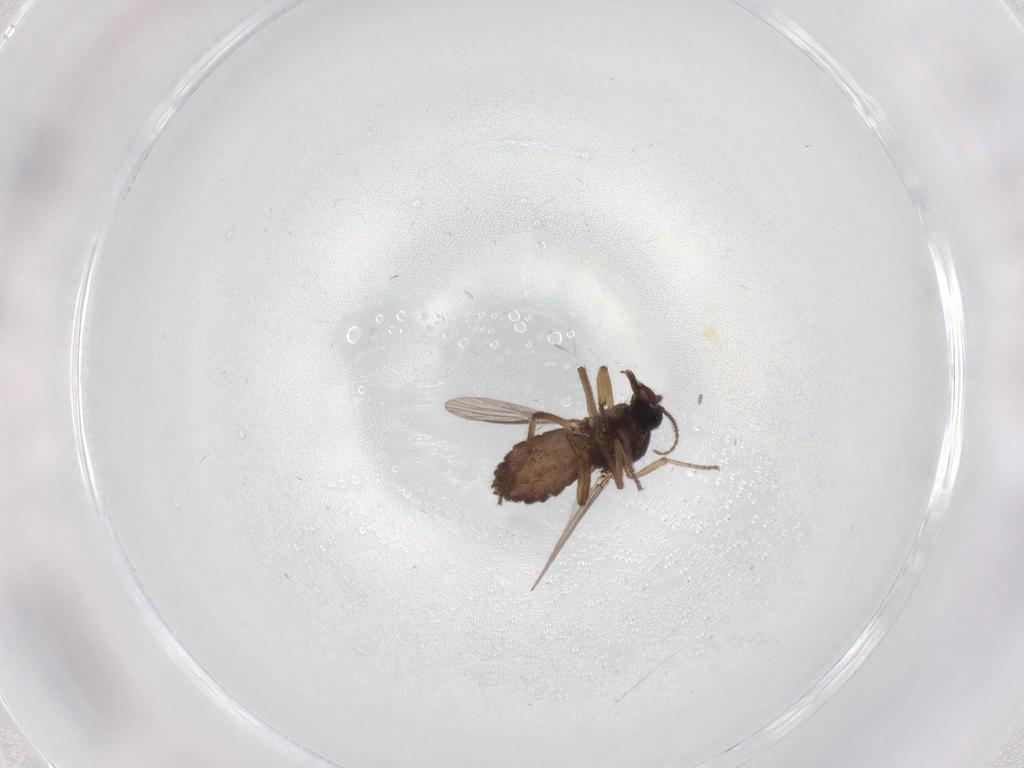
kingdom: Animalia
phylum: Arthropoda
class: Insecta
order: Diptera
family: Ceratopogonidae
